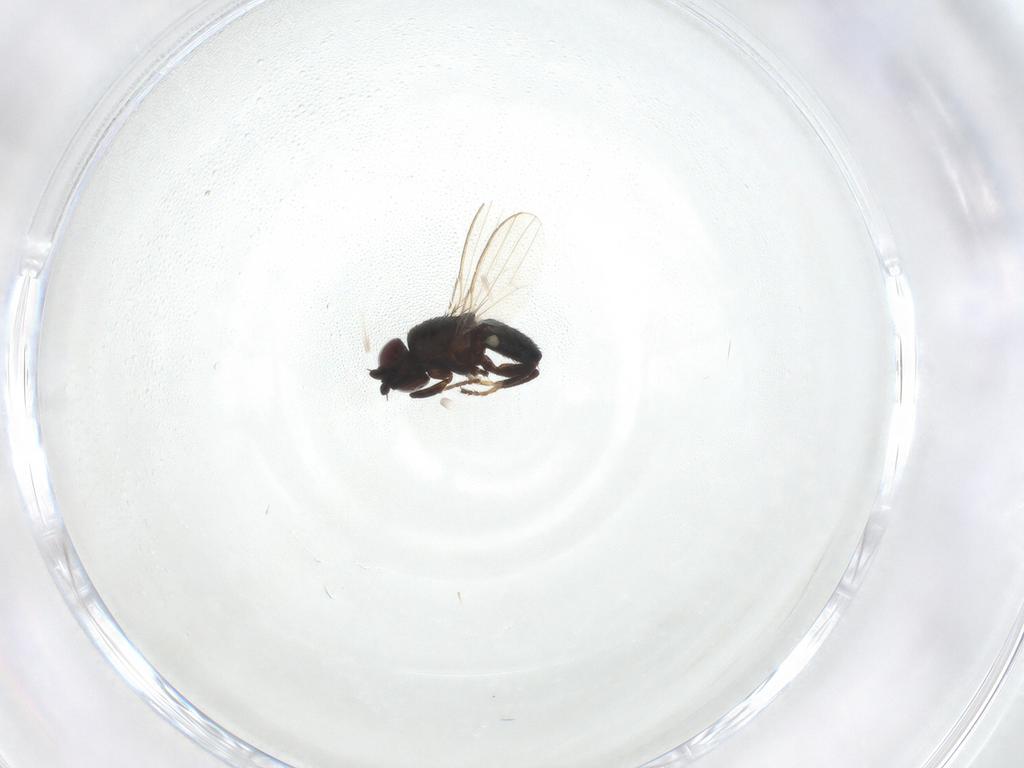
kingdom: Animalia
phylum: Arthropoda
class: Insecta
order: Diptera
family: Milichiidae
